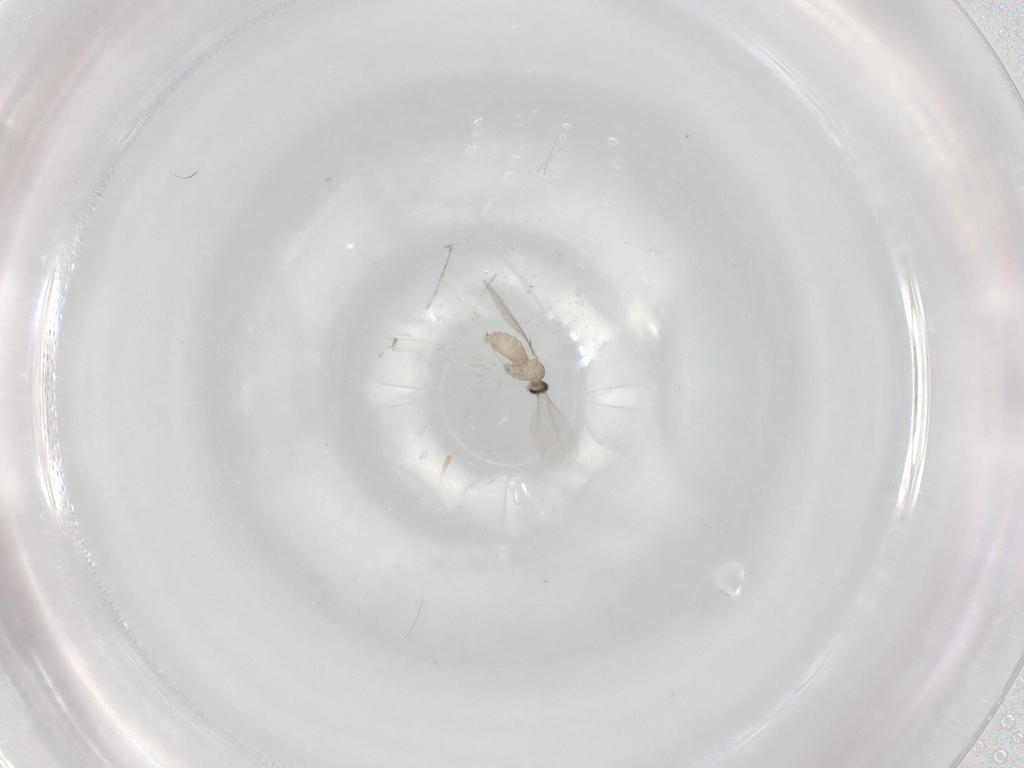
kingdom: Animalia
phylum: Arthropoda
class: Insecta
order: Diptera
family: Cecidomyiidae
